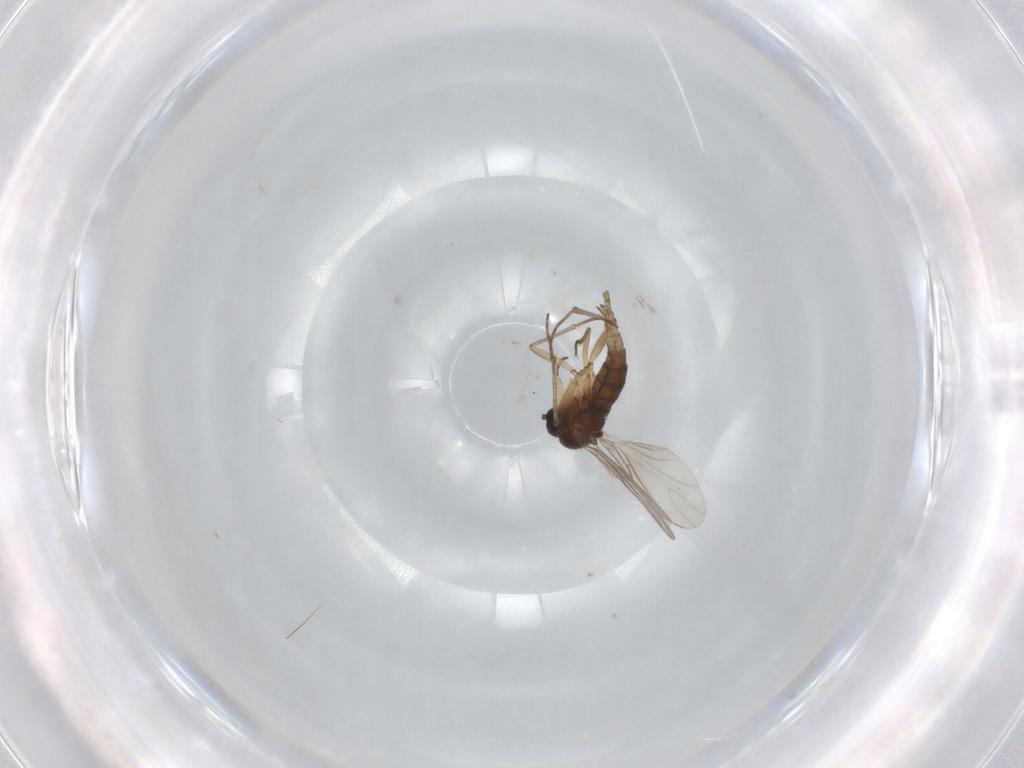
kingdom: Animalia
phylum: Arthropoda
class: Insecta
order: Diptera
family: Sciaridae
